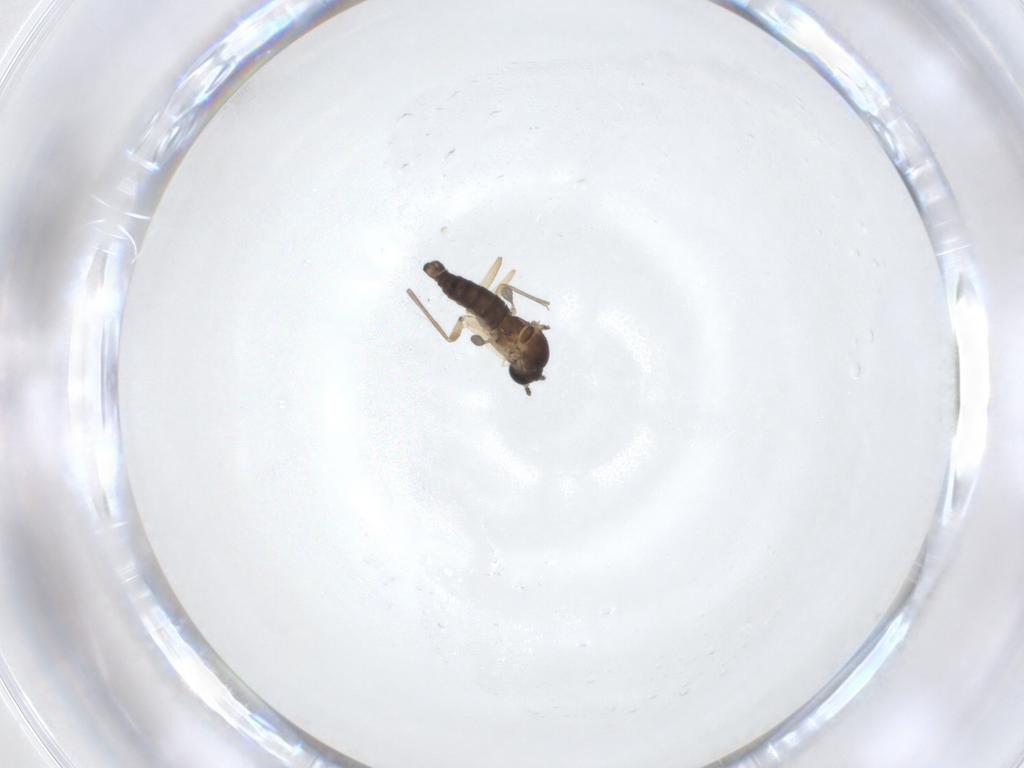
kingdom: Animalia
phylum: Arthropoda
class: Insecta
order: Diptera
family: Sciaridae
